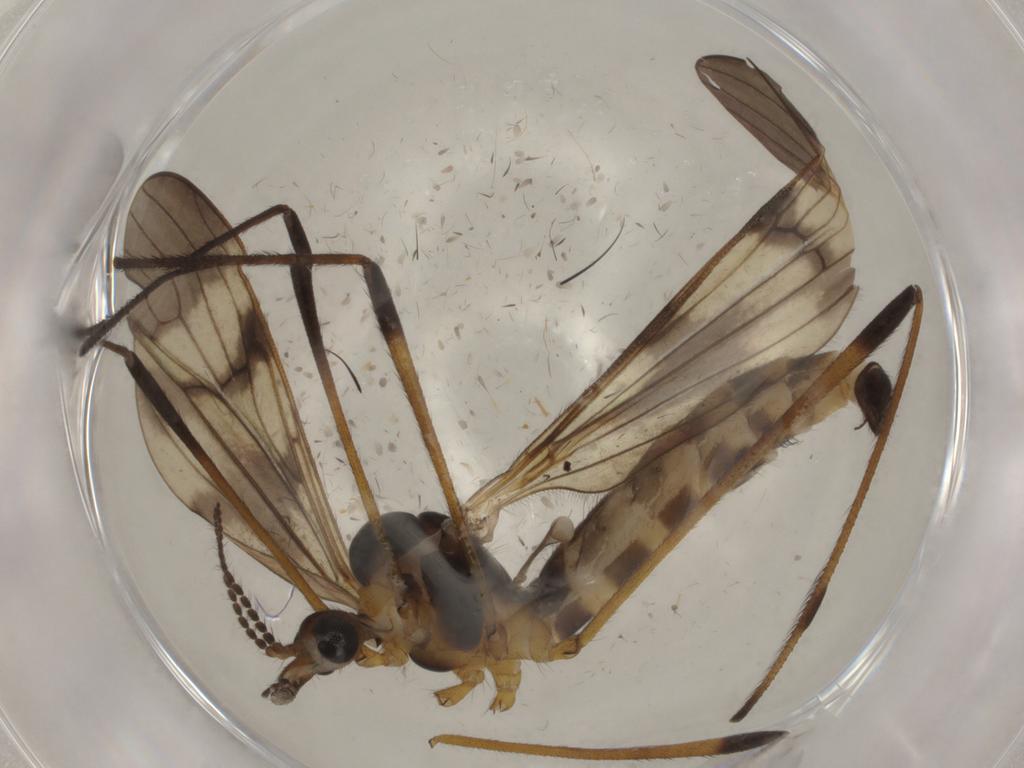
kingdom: Animalia
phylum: Arthropoda
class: Insecta
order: Diptera
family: Limoniidae
